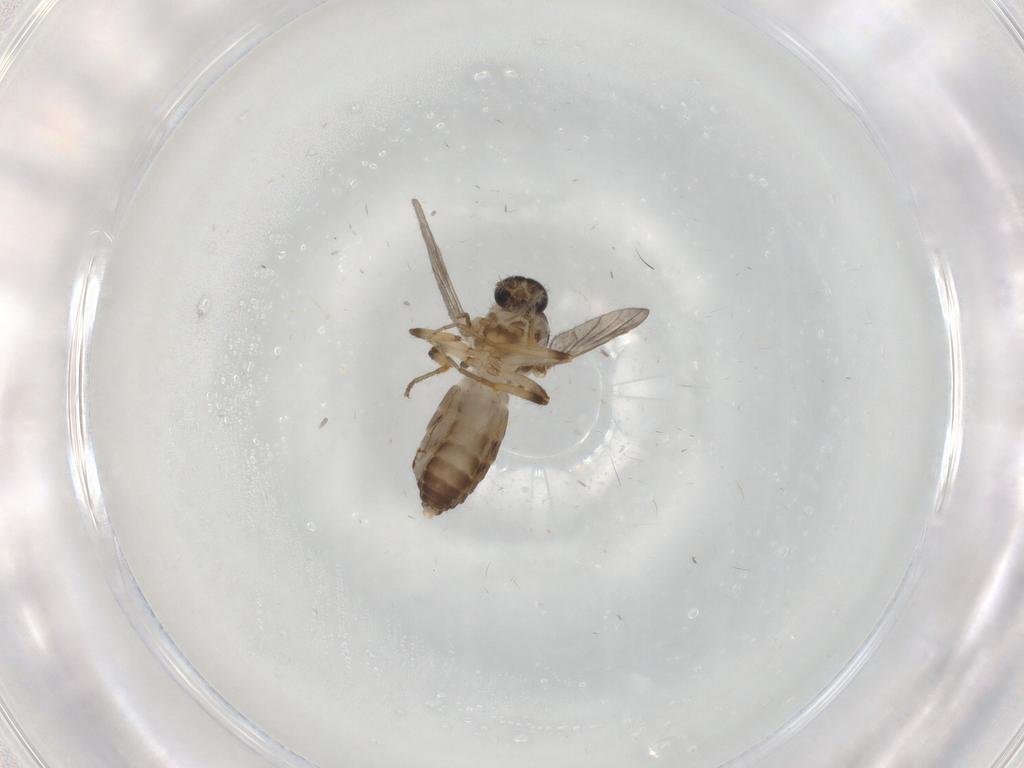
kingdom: Animalia
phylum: Arthropoda
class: Insecta
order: Diptera
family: Ceratopogonidae
